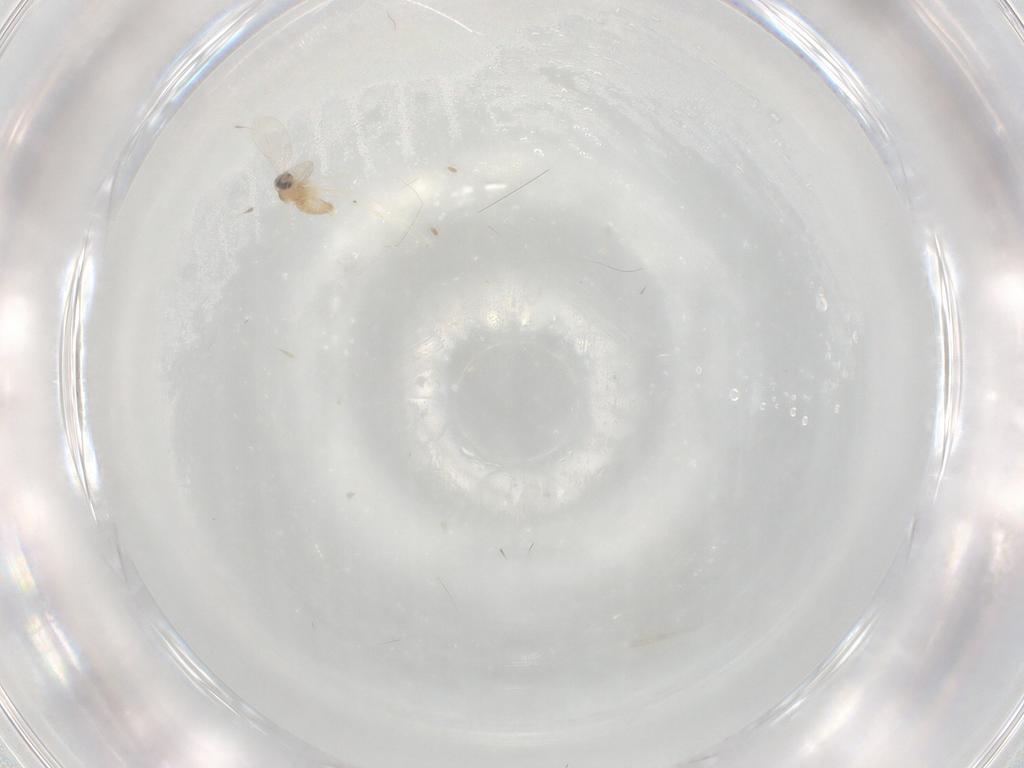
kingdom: Animalia
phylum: Arthropoda
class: Insecta
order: Diptera
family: Cecidomyiidae
